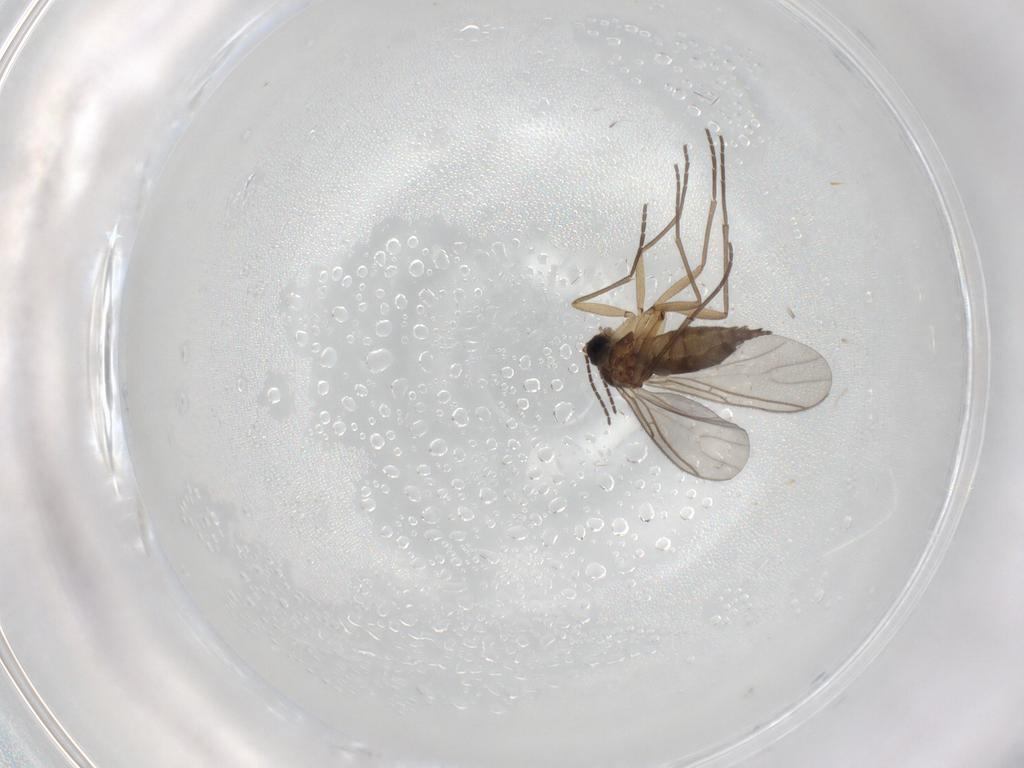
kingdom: Animalia
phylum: Arthropoda
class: Insecta
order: Diptera
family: Sciaridae
